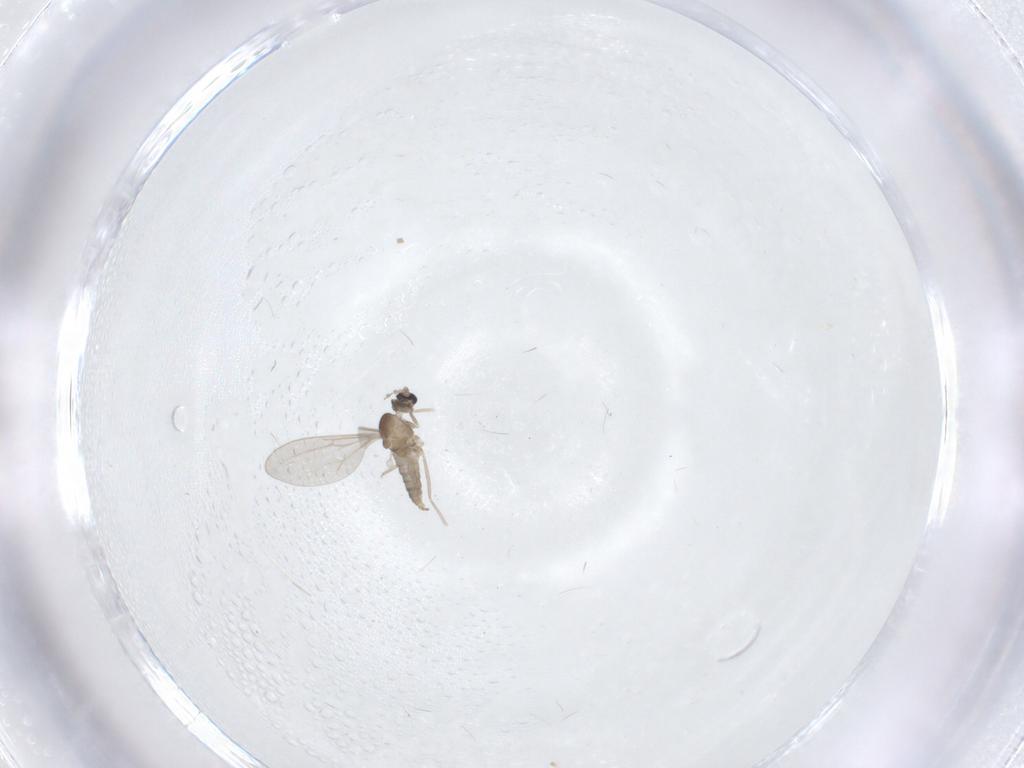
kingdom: Animalia
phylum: Arthropoda
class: Insecta
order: Diptera
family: Cecidomyiidae
